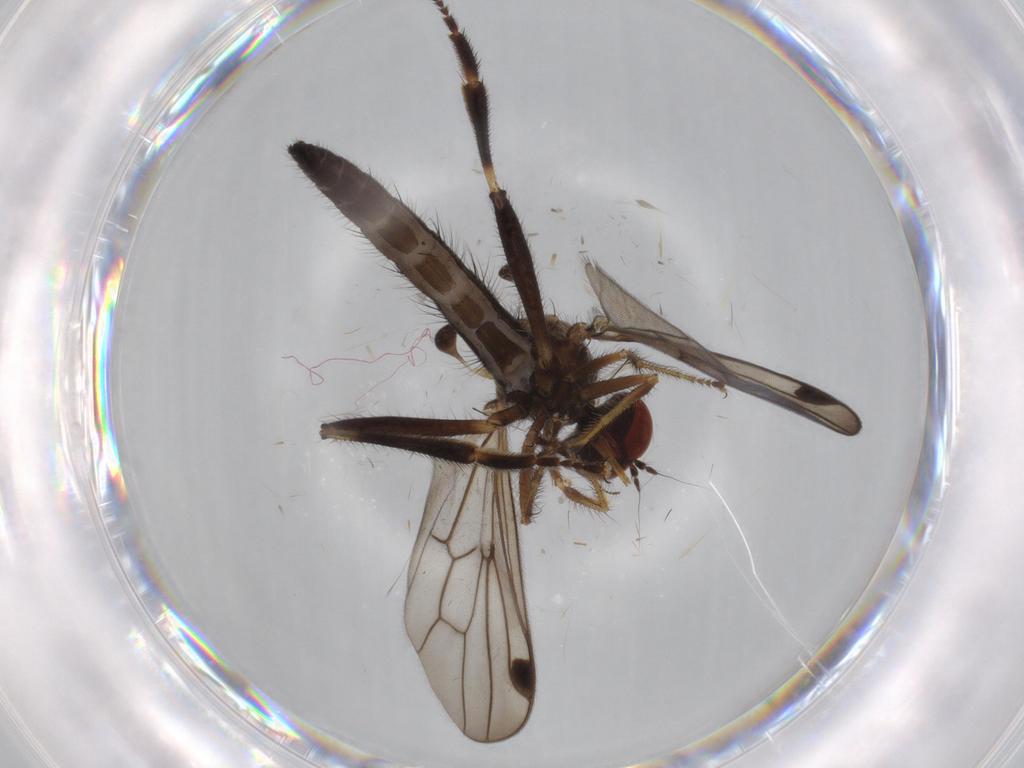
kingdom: Animalia
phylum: Arthropoda
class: Insecta
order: Diptera
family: Hybotidae
